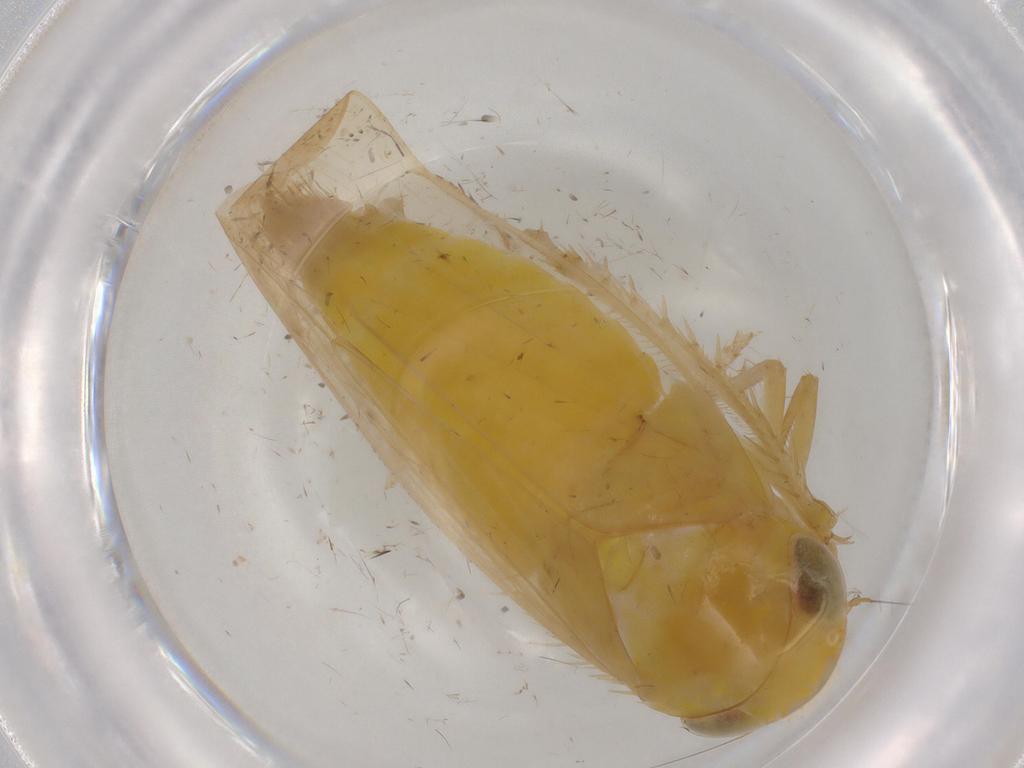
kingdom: Animalia
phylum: Arthropoda
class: Insecta
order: Hemiptera
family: Cicadellidae
